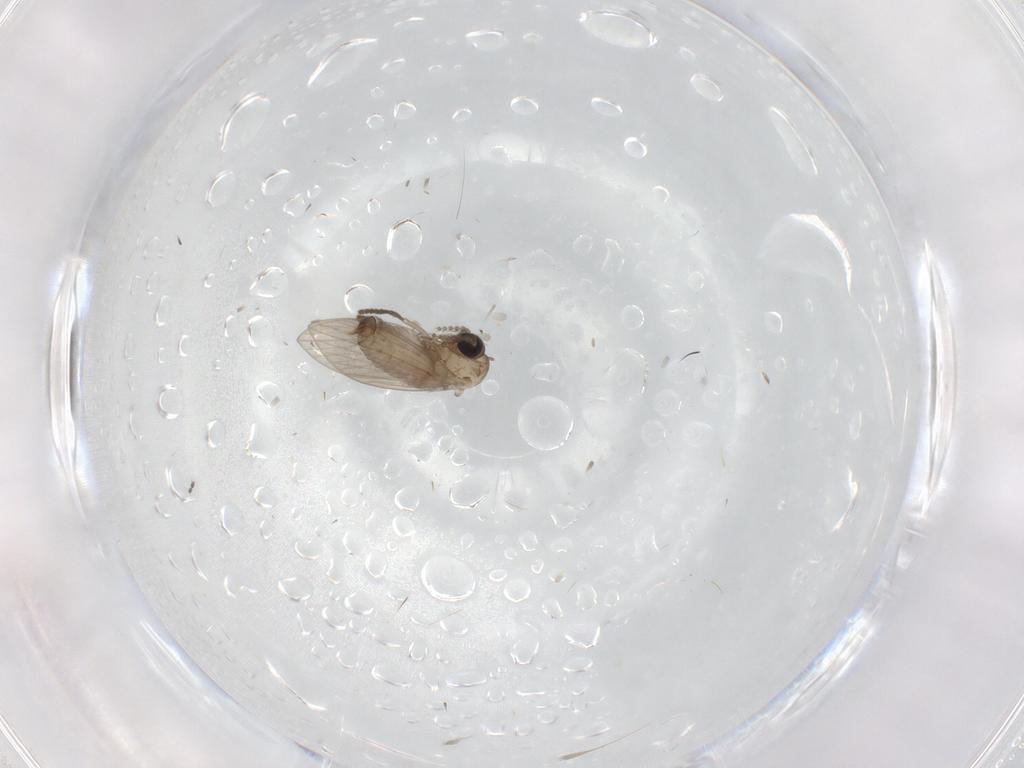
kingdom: Animalia
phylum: Arthropoda
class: Insecta
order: Diptera
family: Psychodidae
